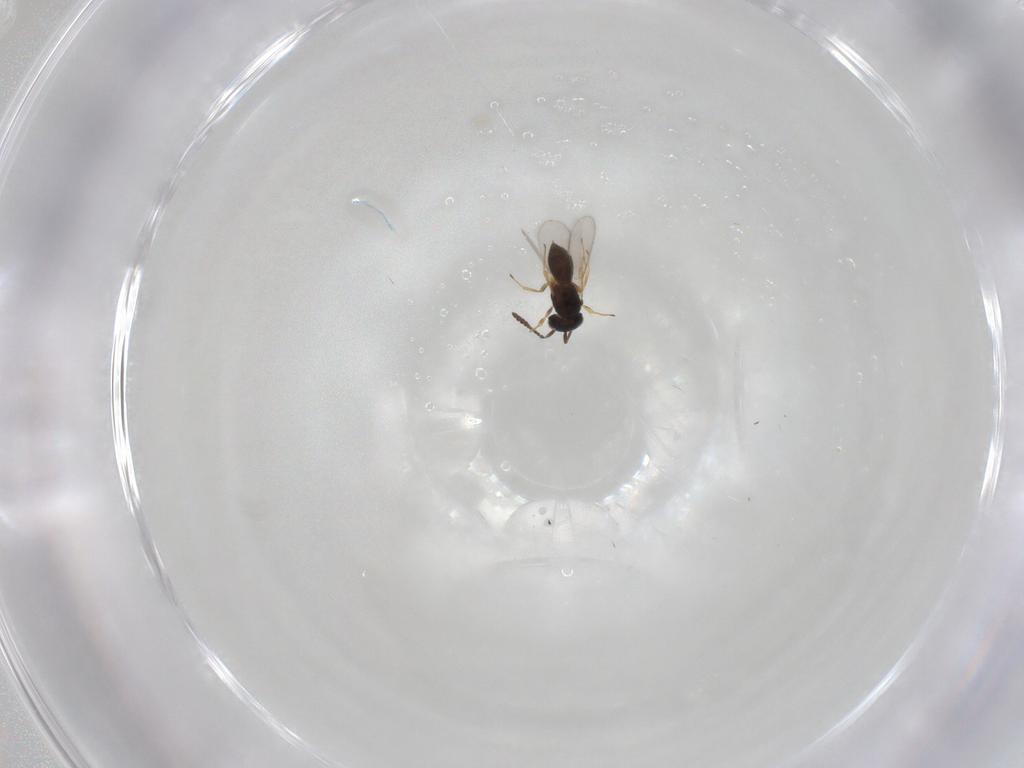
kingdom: Animalia
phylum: Arthropoda
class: Insecta
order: Hymenoptera
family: Scelionidae
